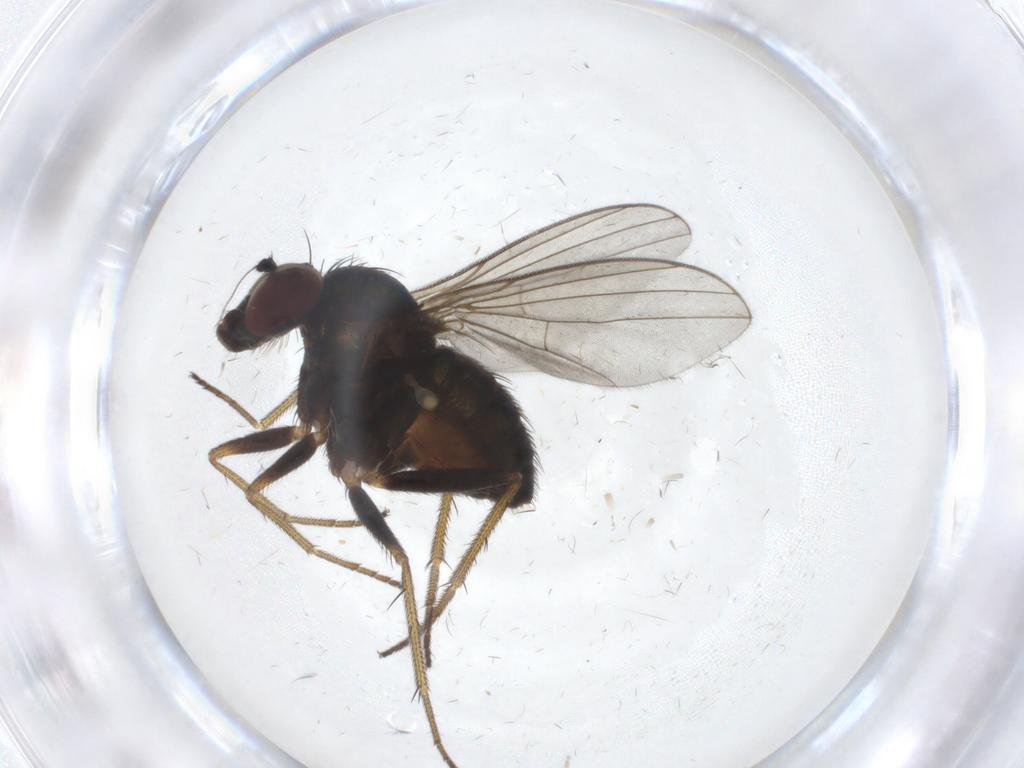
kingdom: Animalia
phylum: Arthropoda
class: Insecta
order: Diptera
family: Dolichopodidae
